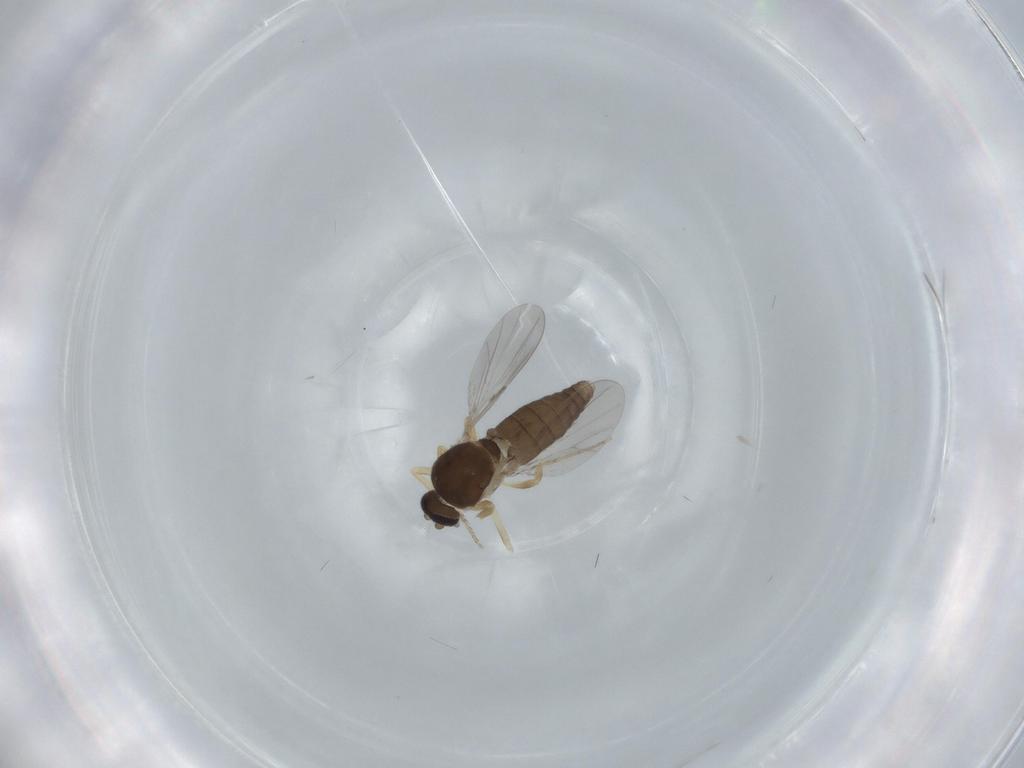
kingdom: Animalia
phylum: Arthropoda
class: Insecta
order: Diptera
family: Ceratopogonidae
